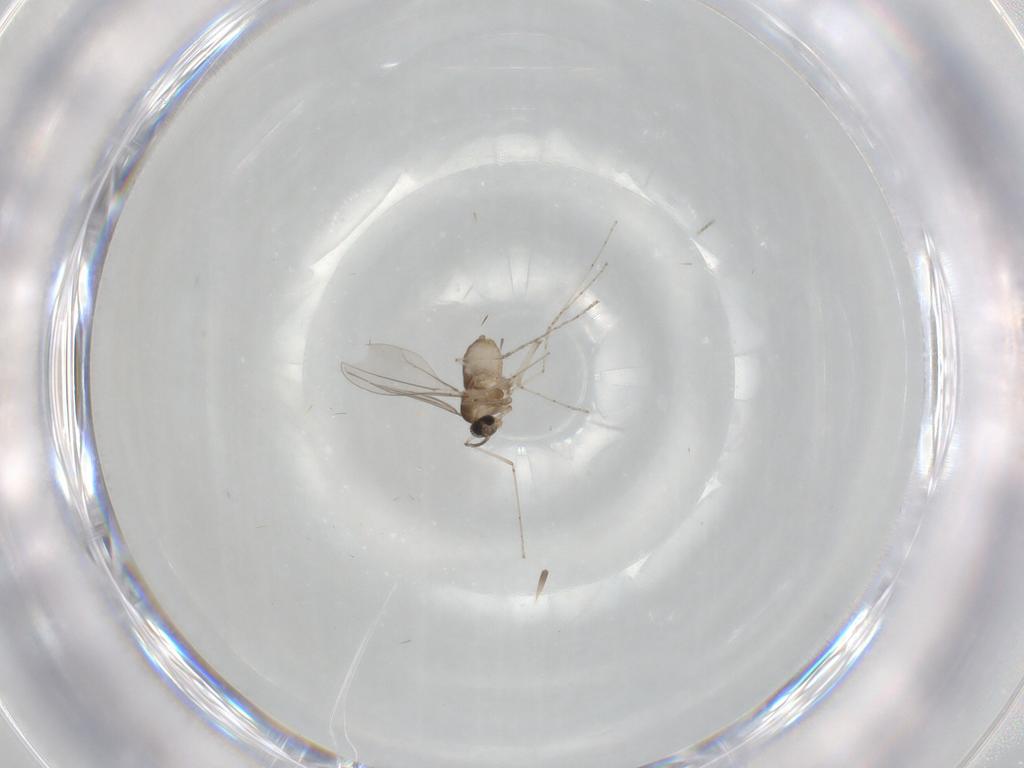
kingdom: Animalia
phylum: Arthropoda
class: Insecta
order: Diptera
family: Cecidomyiidae
